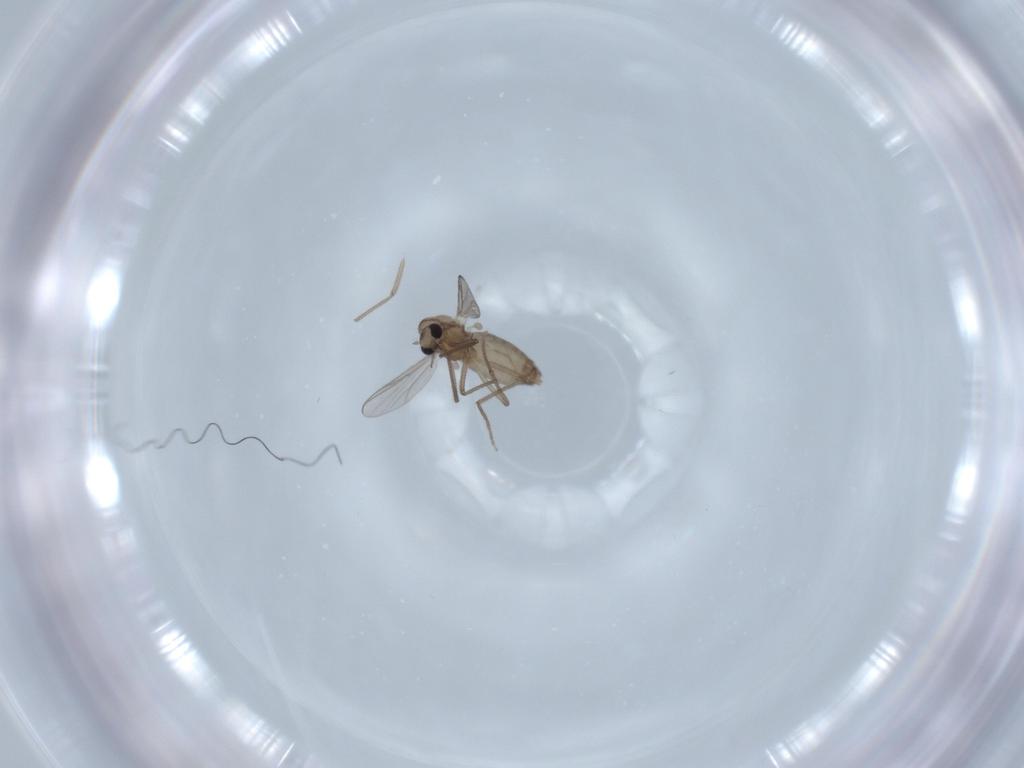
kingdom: Animalia
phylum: Arthropoda
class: Insecta
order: Diptera
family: Chironomidae
